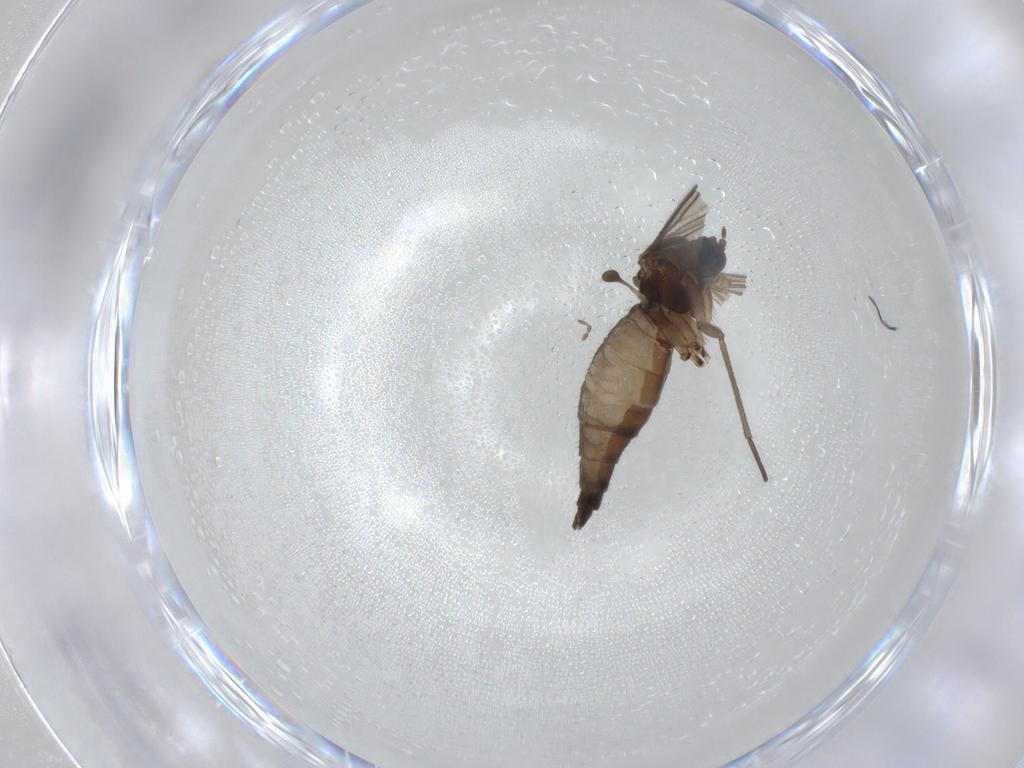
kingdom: Animalia
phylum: Arthropoda
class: Insecta
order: Diptera
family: Sciaridae
